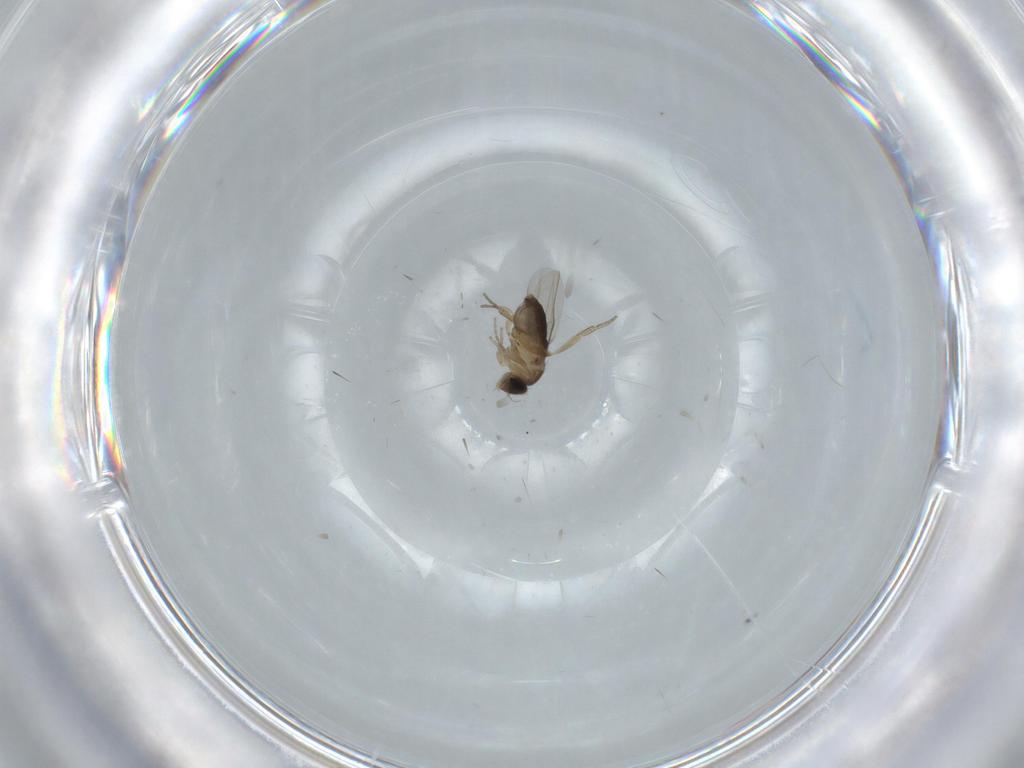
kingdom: Animalia
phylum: Arthropoda
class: Insecta
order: Diptera
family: Phoridae
